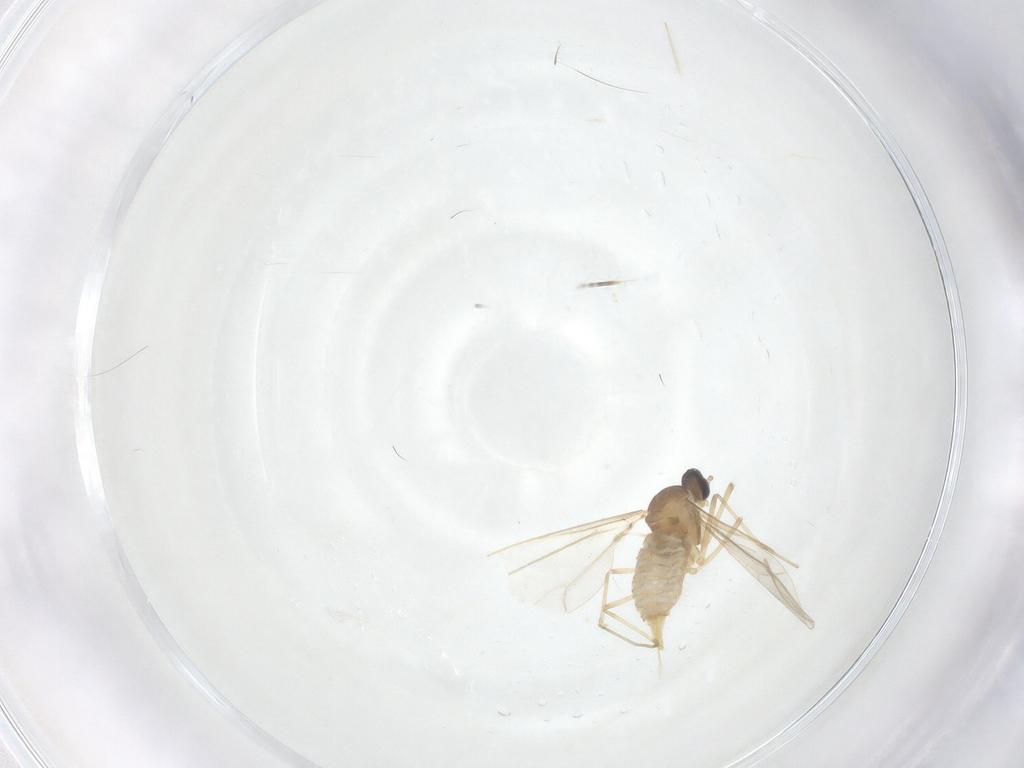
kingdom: Animalia
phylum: Arthropoda
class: Insecta
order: Diptera
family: Cecidomyiidae
